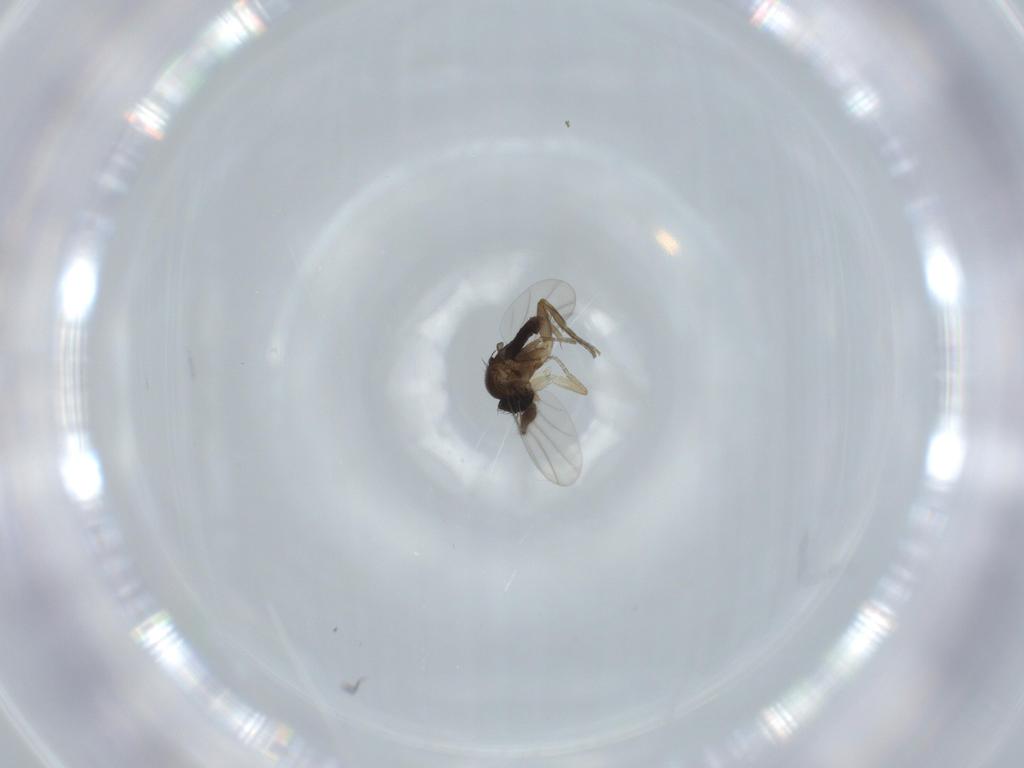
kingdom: Animalia
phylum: Arthropoda
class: Insecta
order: Diptera
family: Phoridae
